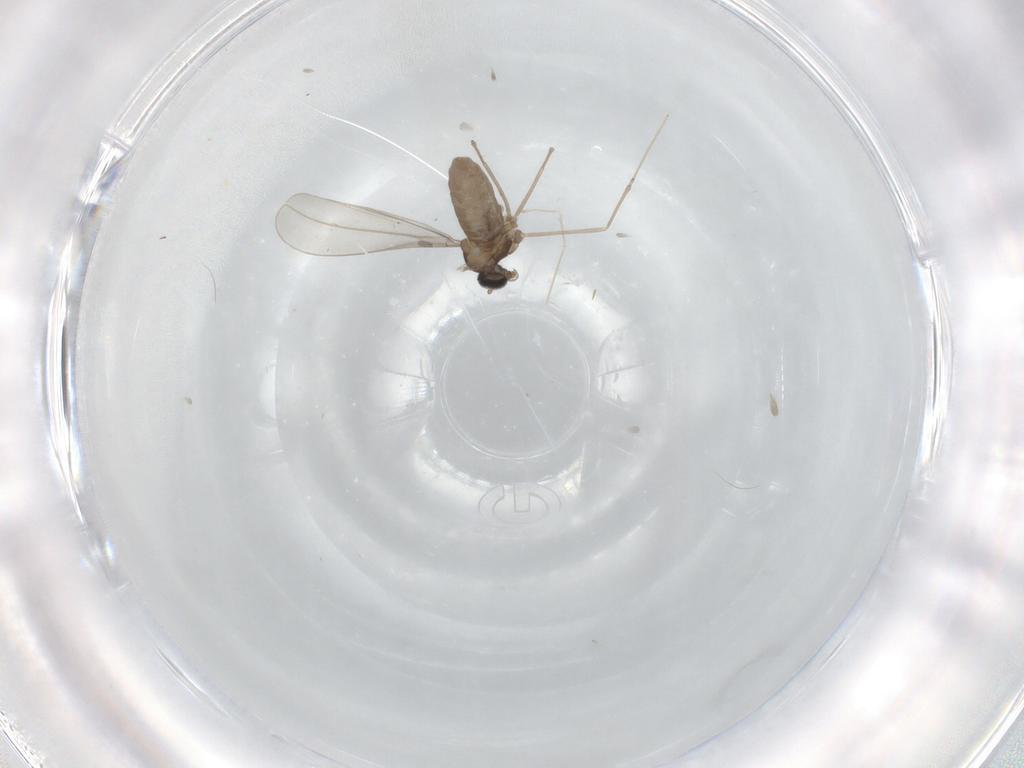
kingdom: Animalia
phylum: Arthropoda
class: Insecta
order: Diptera
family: Cecidomyiidae
